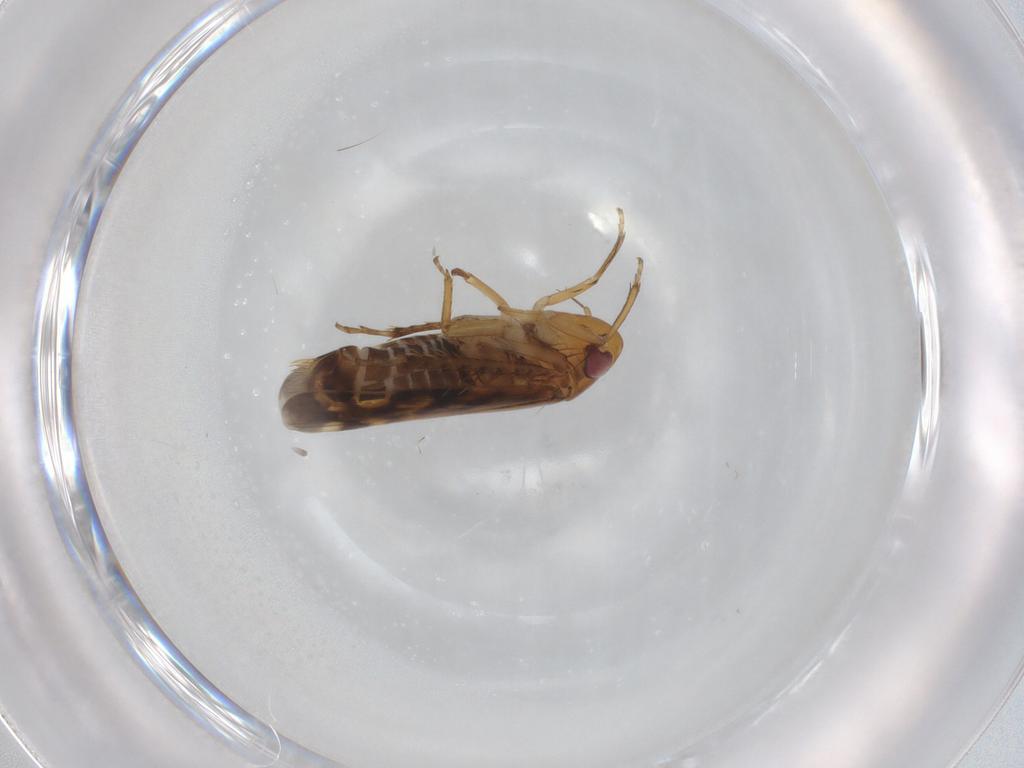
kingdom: Animalia
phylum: Arthropoda
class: Insecta
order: Hemiptera
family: Cicadellidae
